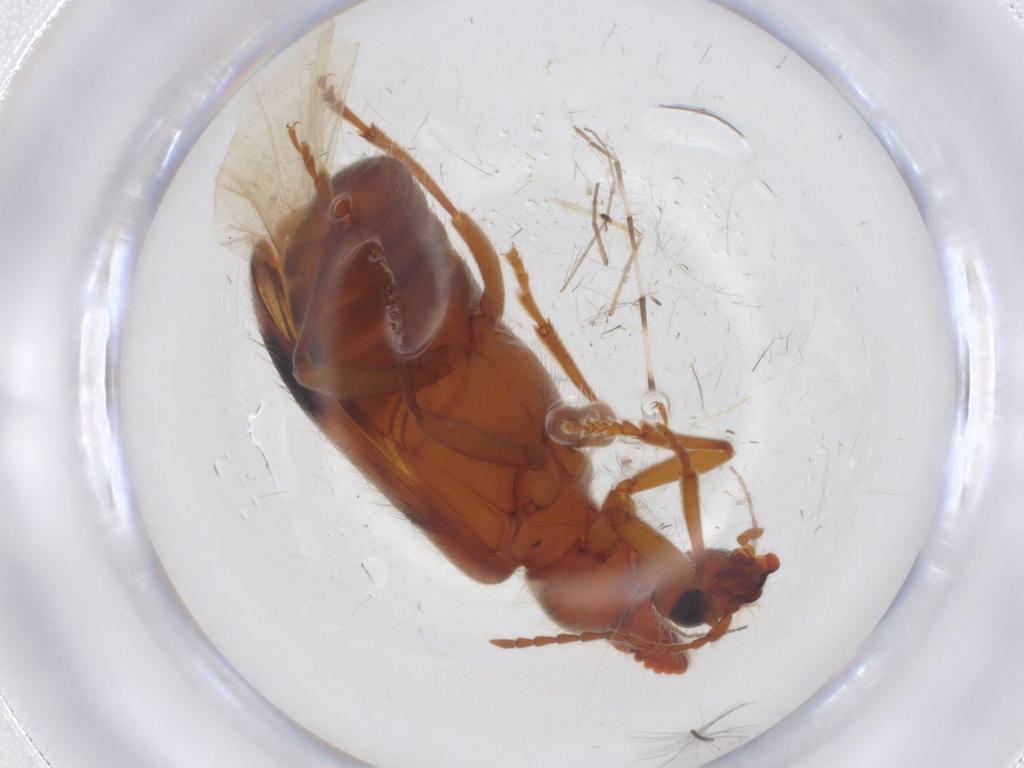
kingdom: Animalia
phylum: Arthropoda
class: Insecta
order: Coleoptera
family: Anthicidae
